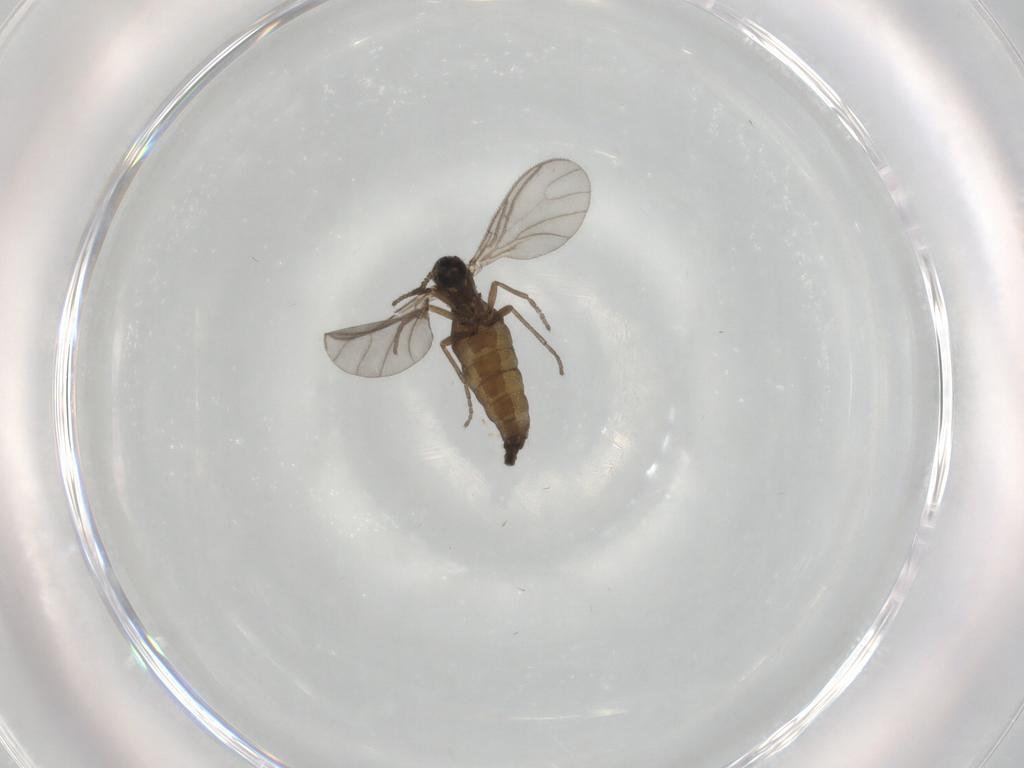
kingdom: Animalia
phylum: Arthropoda
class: Insecta
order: Diptera
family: Sciaridae
